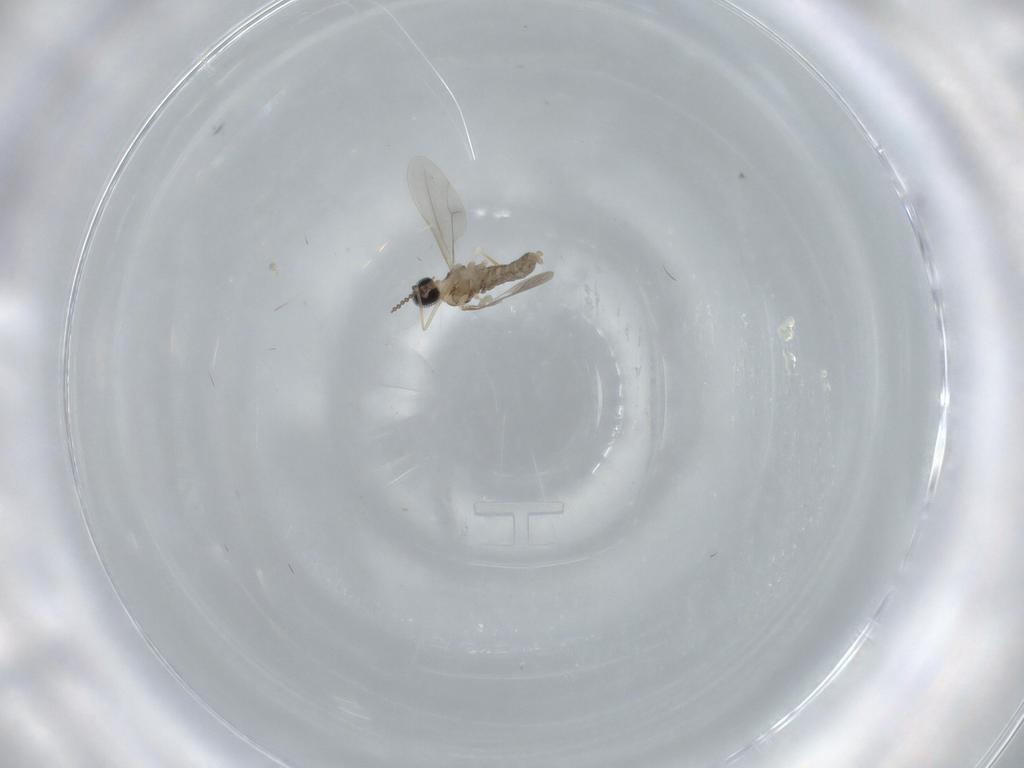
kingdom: Animalia
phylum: Arthropoda
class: Insecta
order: Diptera
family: Cecidomyiidae
